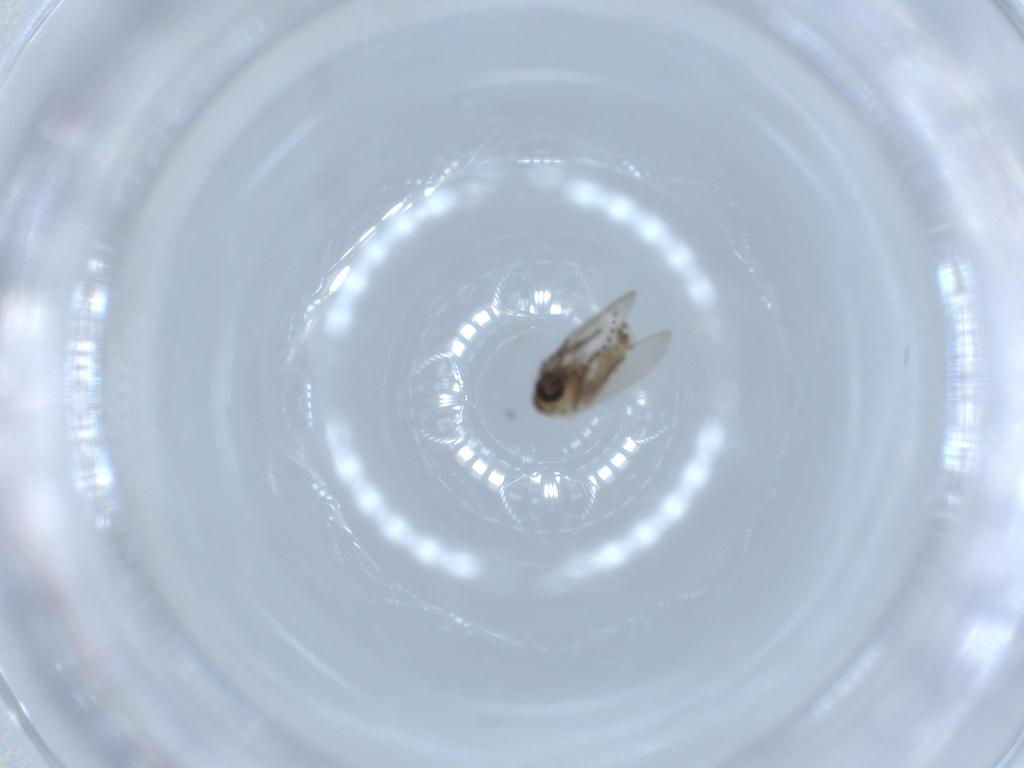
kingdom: Animalia
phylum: Arthropoda
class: Insecta
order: Diptera
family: Psychodidae
